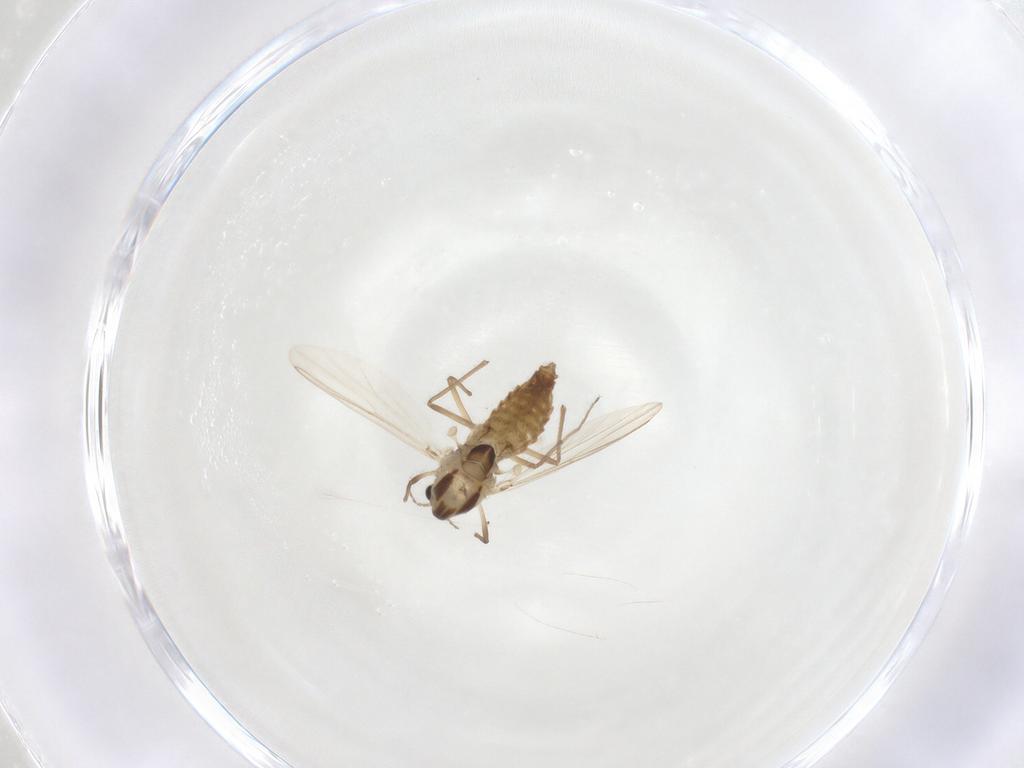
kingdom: Animalia
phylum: Arthropoda
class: Insecta
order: Diptera
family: Chironomidae
